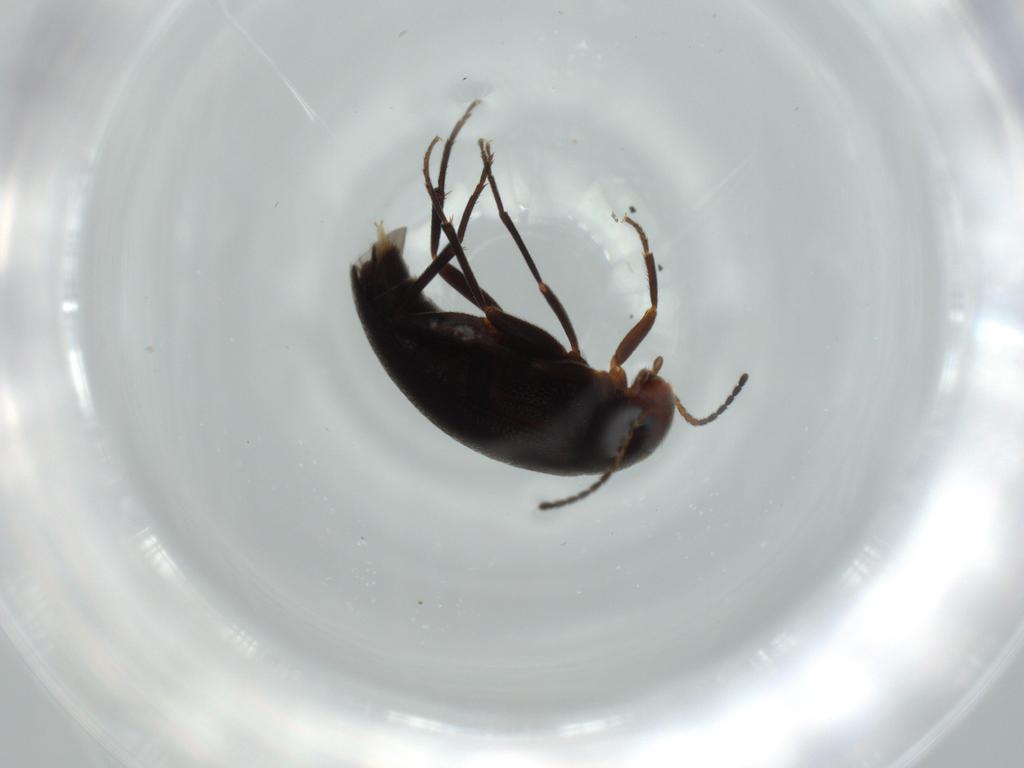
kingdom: Animalia
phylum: Arthropoda
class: Insecta
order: Coleoptera
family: Melandryidae
